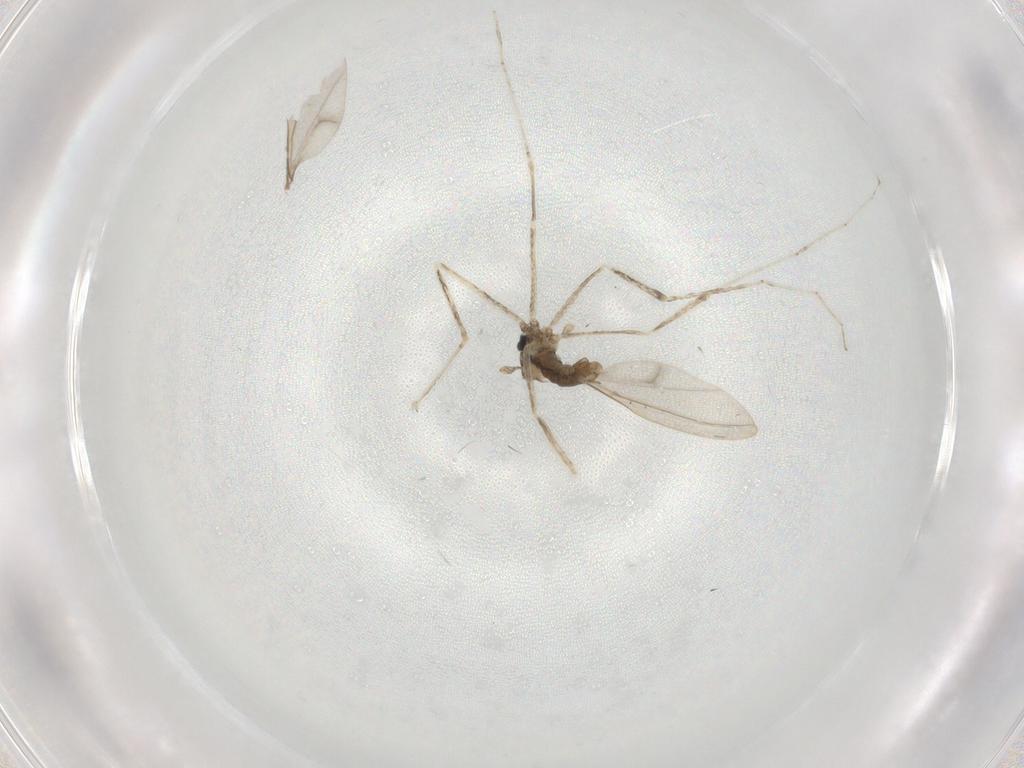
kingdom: Animalia
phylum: Arthropoda
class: Insecta
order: Diptera
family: Cecidomyiidae
